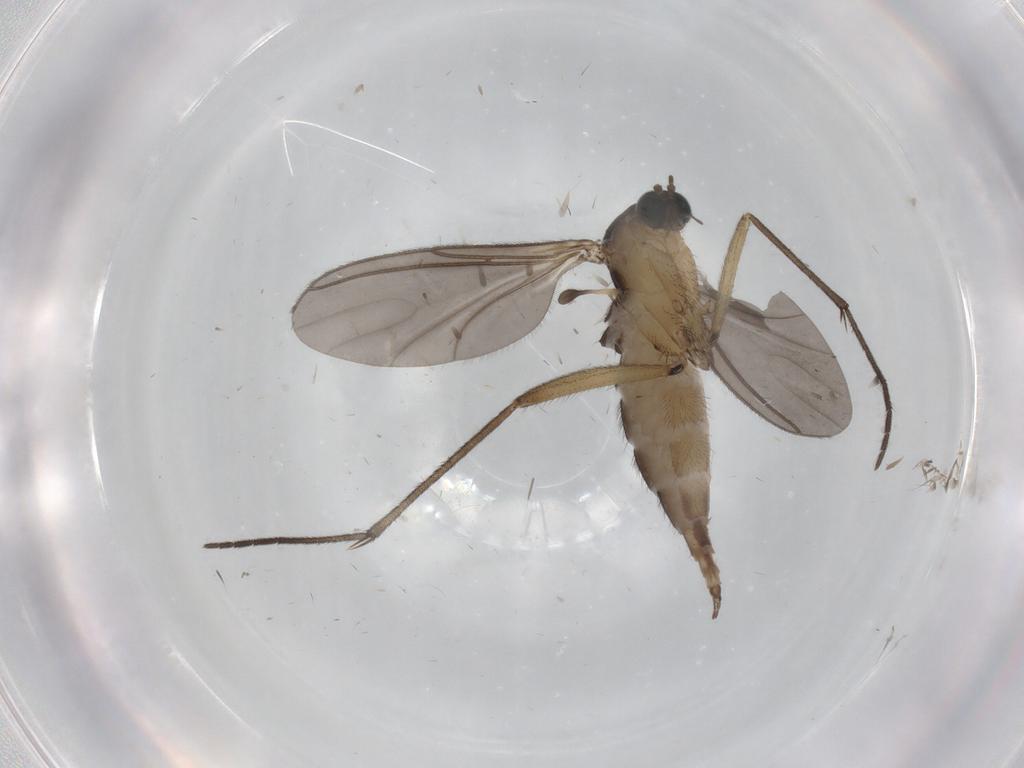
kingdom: Animalia
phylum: Arthropoda
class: Insecta
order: Diptera
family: Sciaridae
